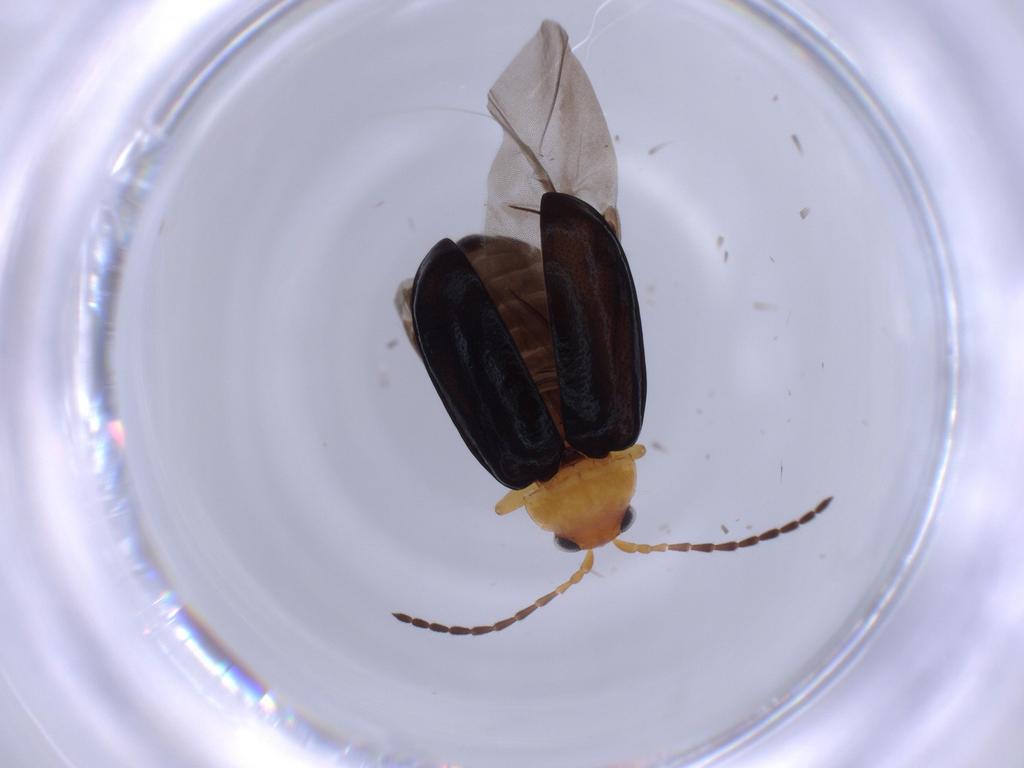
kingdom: Animalia
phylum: Arthropoda
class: Insecta
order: Coleoptera
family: Chrysomelidae
